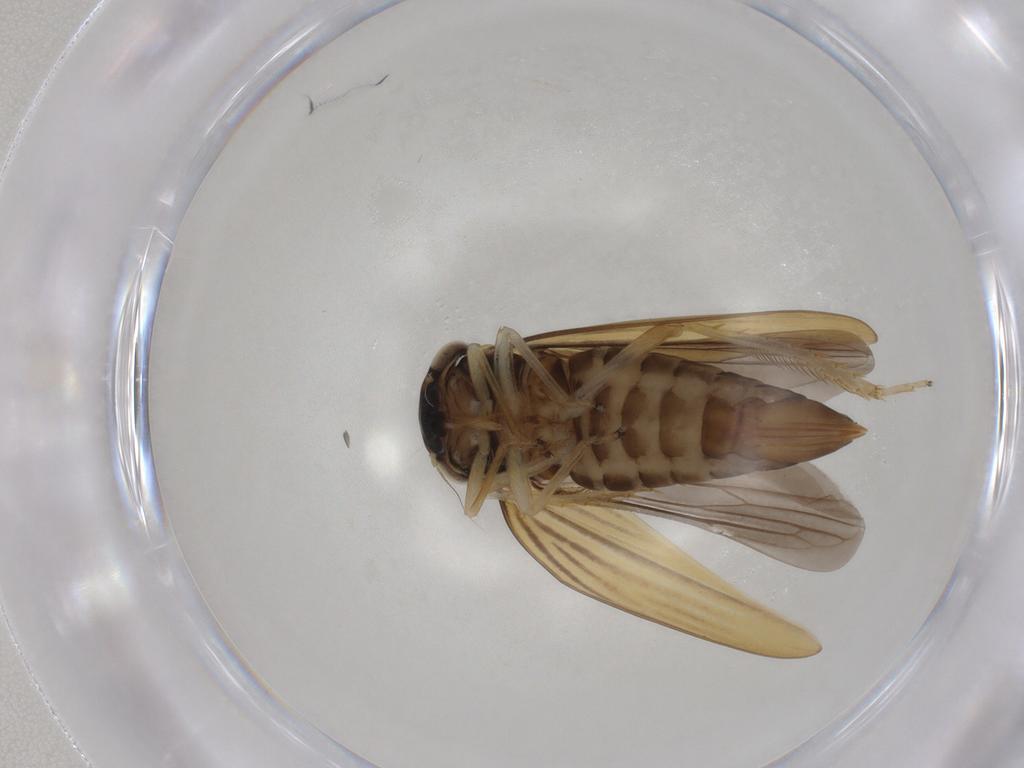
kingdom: Animalia
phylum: Arthropoda
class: Insecta
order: Hemiptera
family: Cicadellidae
